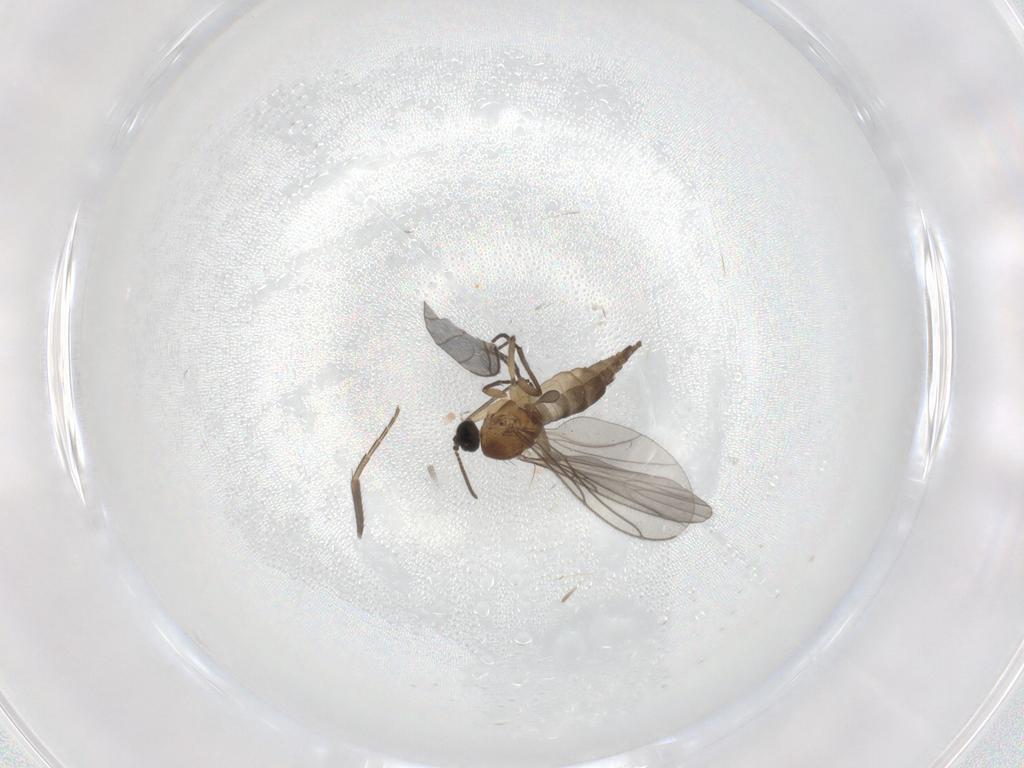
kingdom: Animalia
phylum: Arthropoda
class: Insecta
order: Diptera
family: Sciaridae
